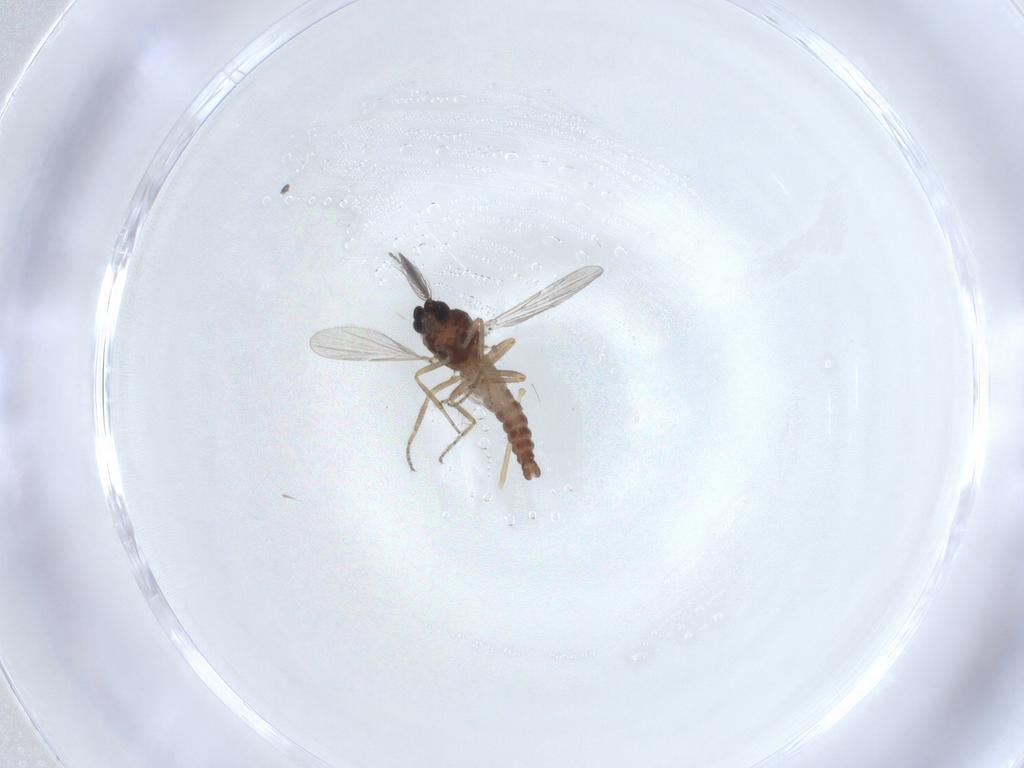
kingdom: Animalia
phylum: Arthropoda
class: Insecta
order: Diptera
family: Ceratopogonidae
